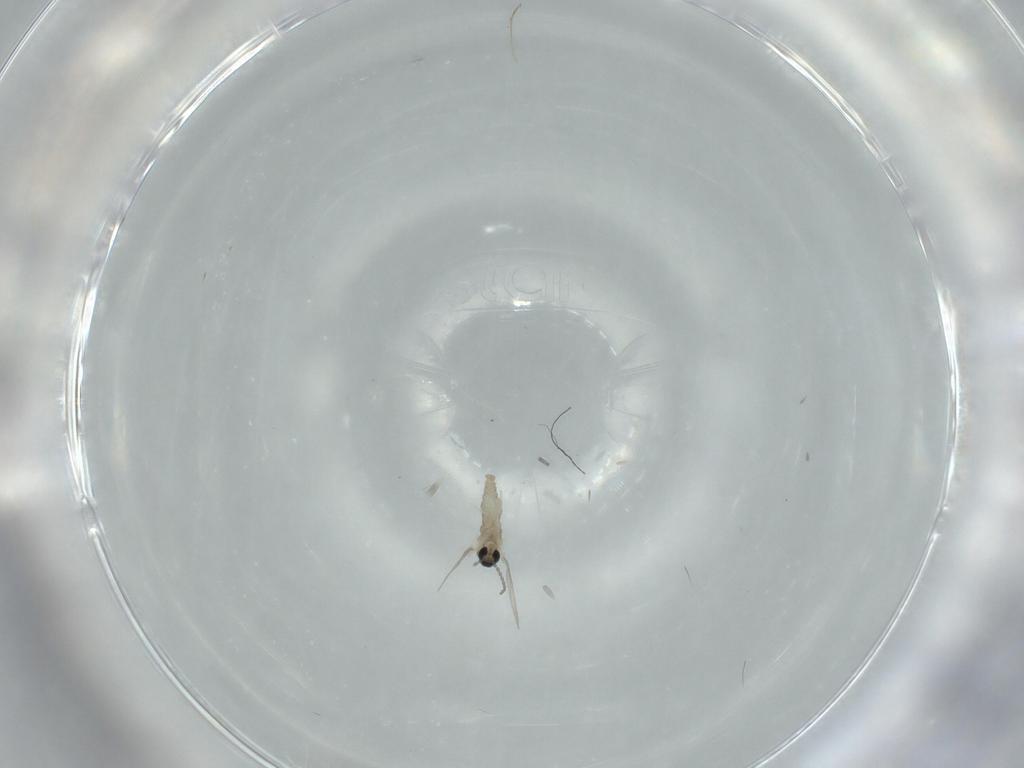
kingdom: Animalia
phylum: Arthropoda
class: Insecta
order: Diptera
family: Cecidomyiidae
